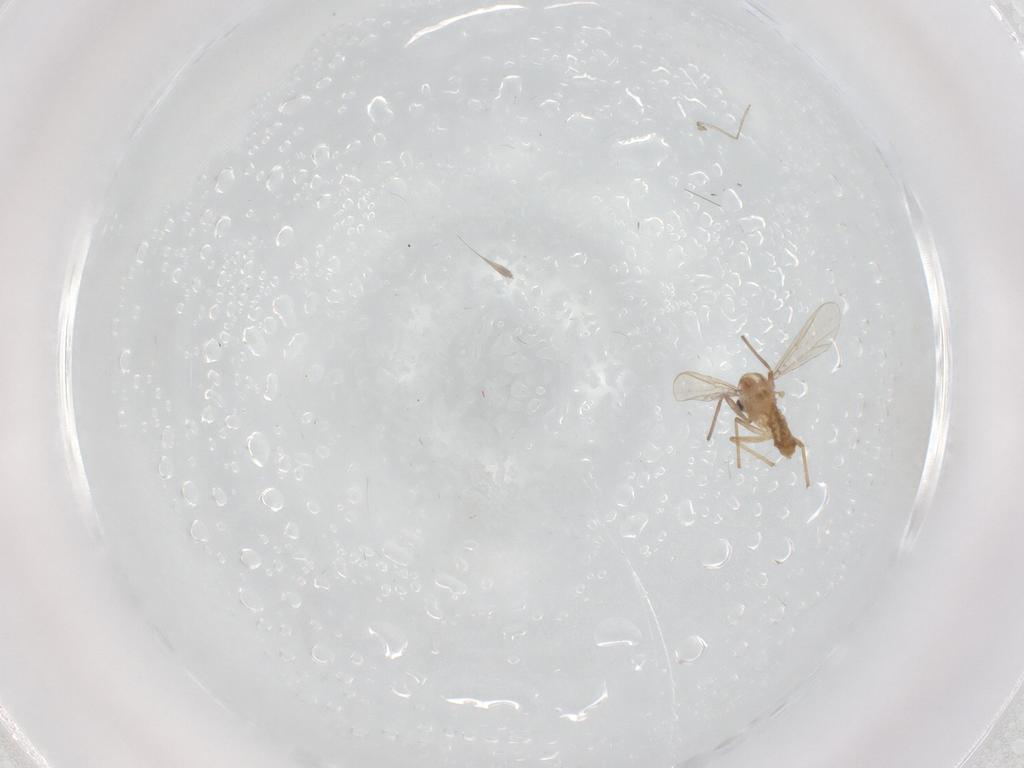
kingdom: Animalia
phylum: Arthropoda
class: Insecta
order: Diptera
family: Chironomidae
